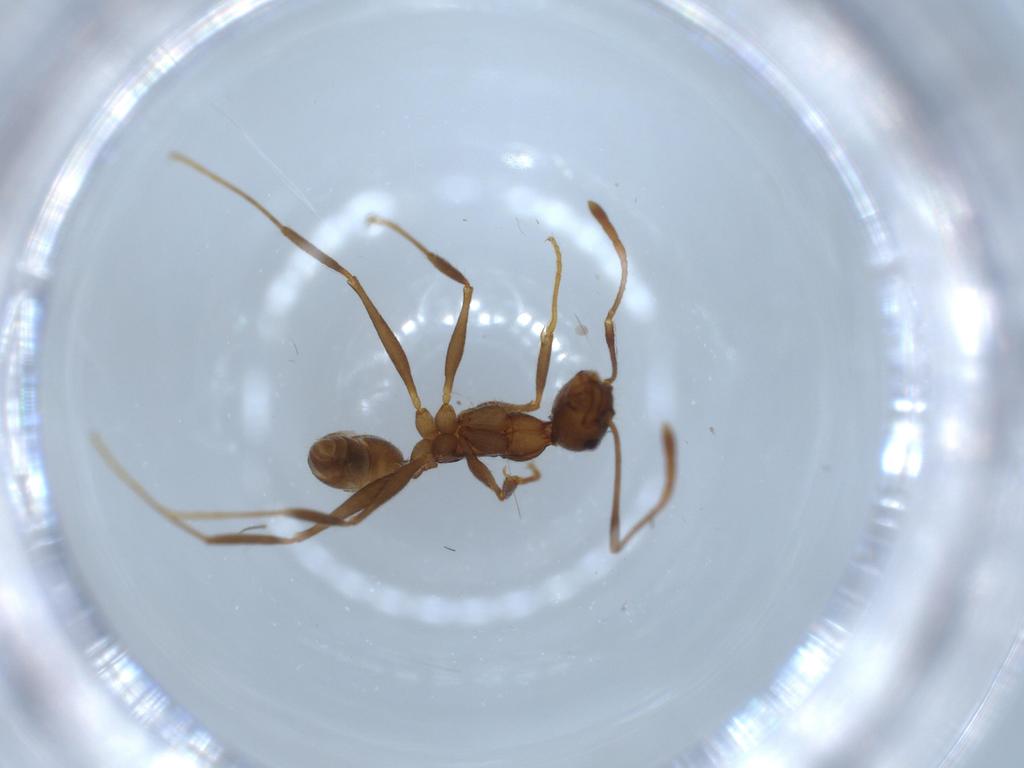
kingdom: Animalia
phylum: Arthropoda
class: Insecta
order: Hymenoptera
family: Formicidae
